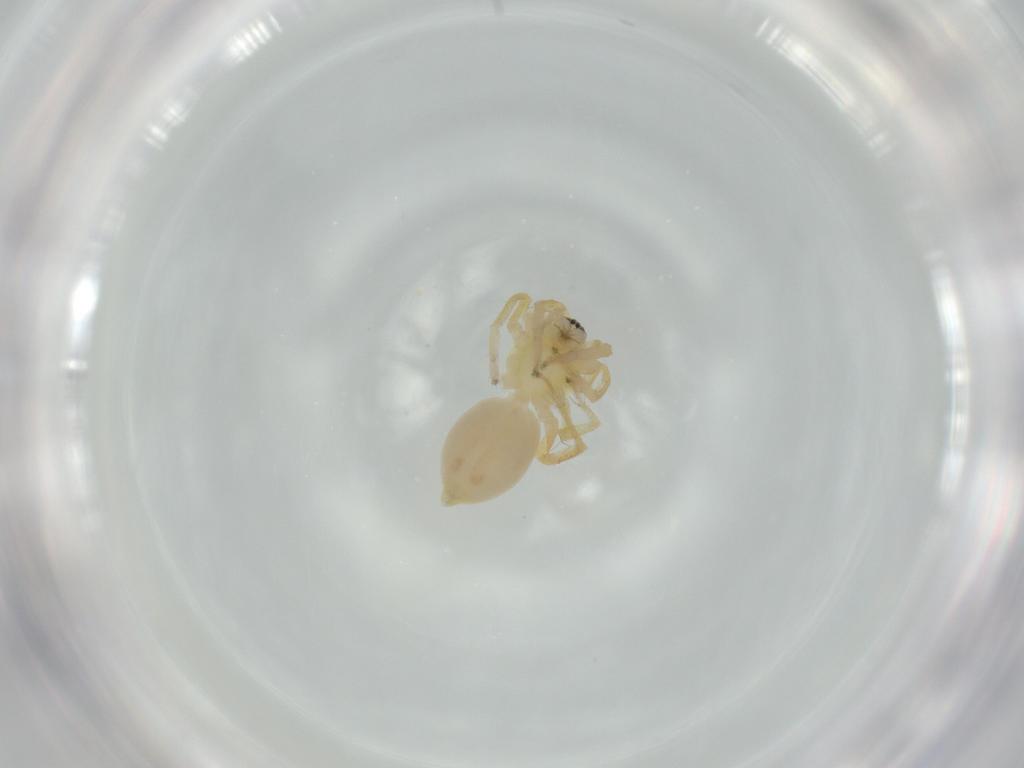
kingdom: Animalia
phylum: Arthropoda
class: Arachnida
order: Araneae
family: Anyphaenidae
